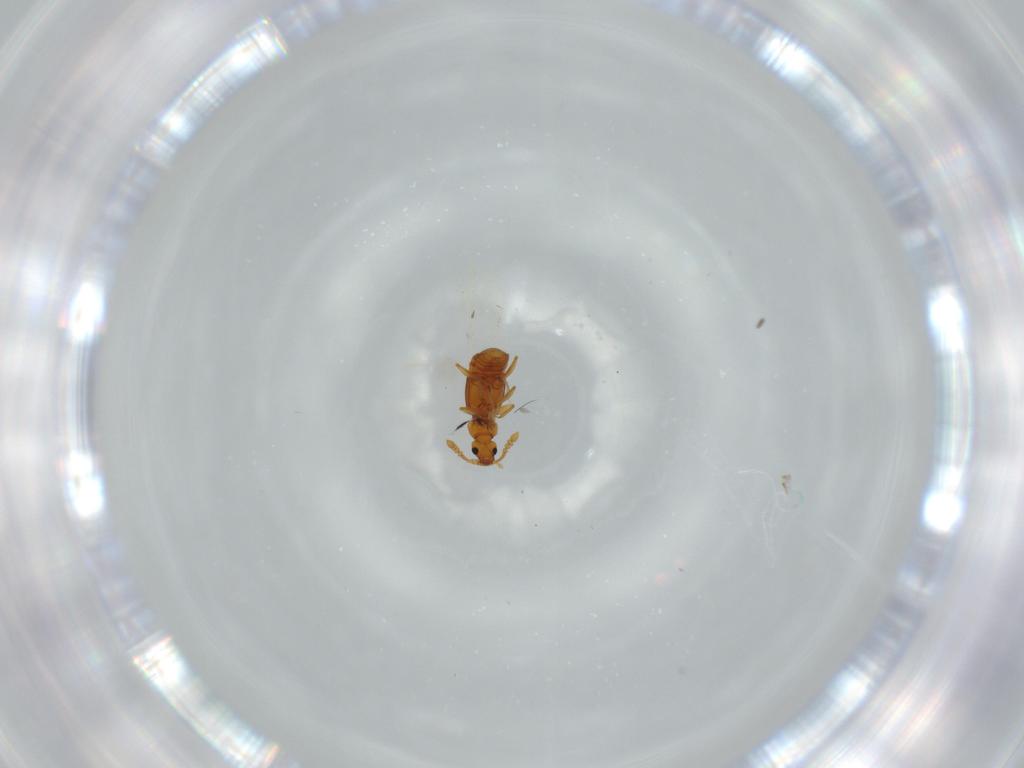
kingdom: Animalia
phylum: Arthropoda
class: Insecta
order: Coleoptera
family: Staphylinidae
